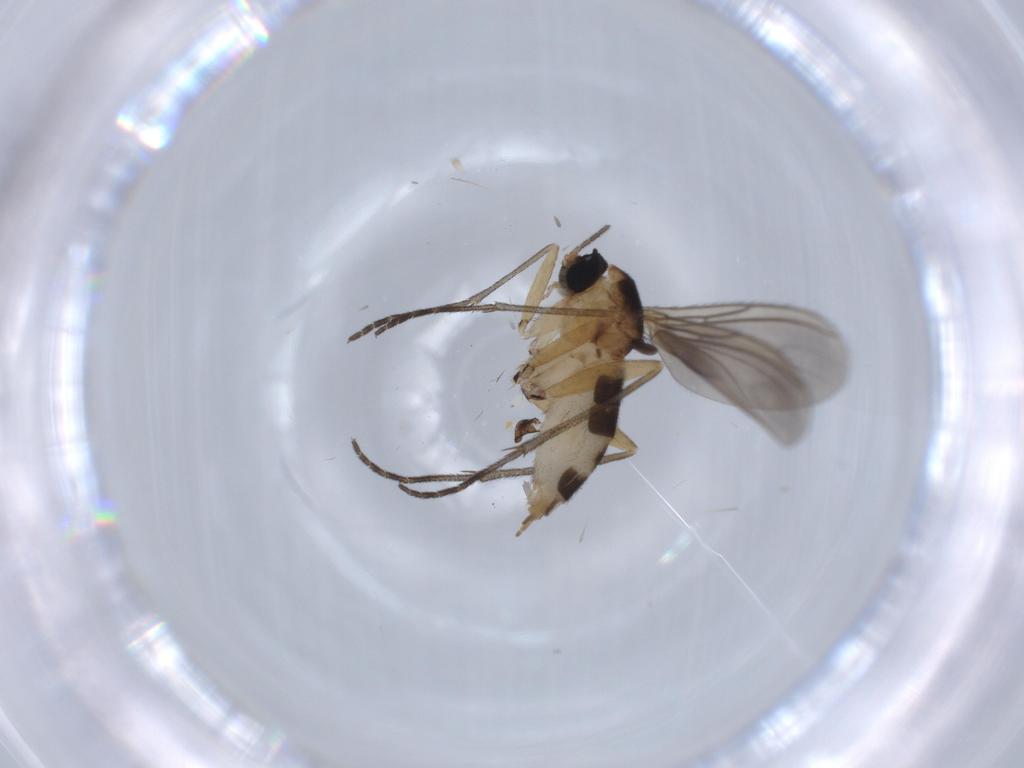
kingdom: Animalia
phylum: Arthropoda
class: Insecta
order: Diptera
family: Sciaridae
